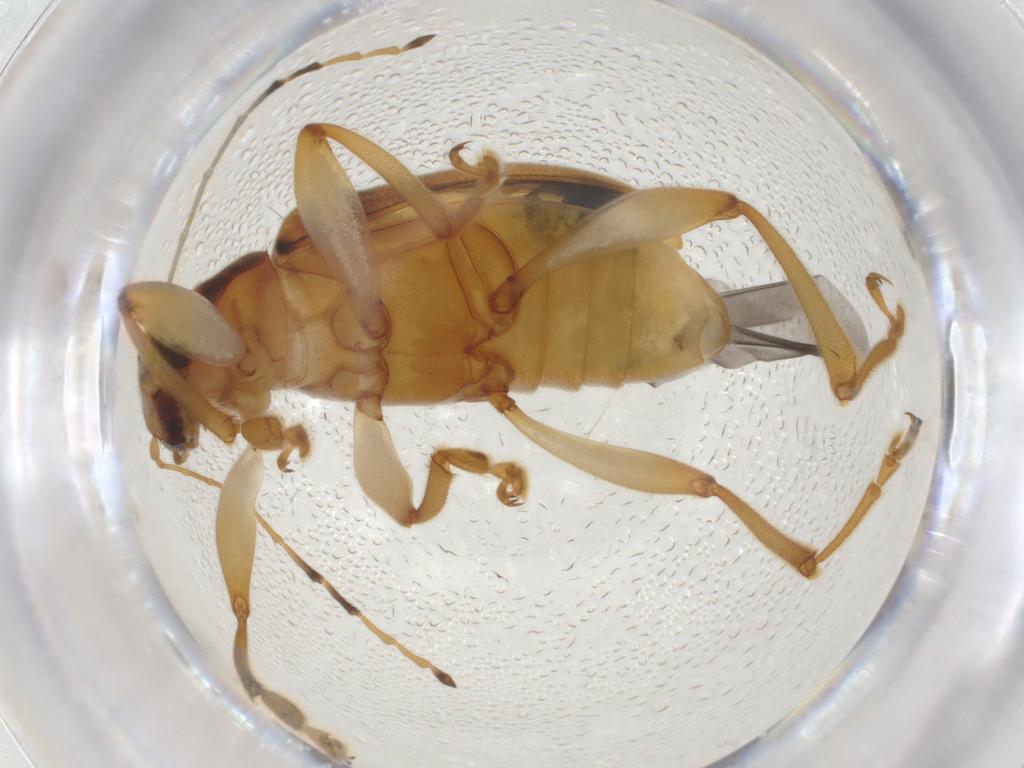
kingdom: Animalia
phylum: Arthropoda
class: Insecta
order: Coleoptera
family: Chrysomelidae
